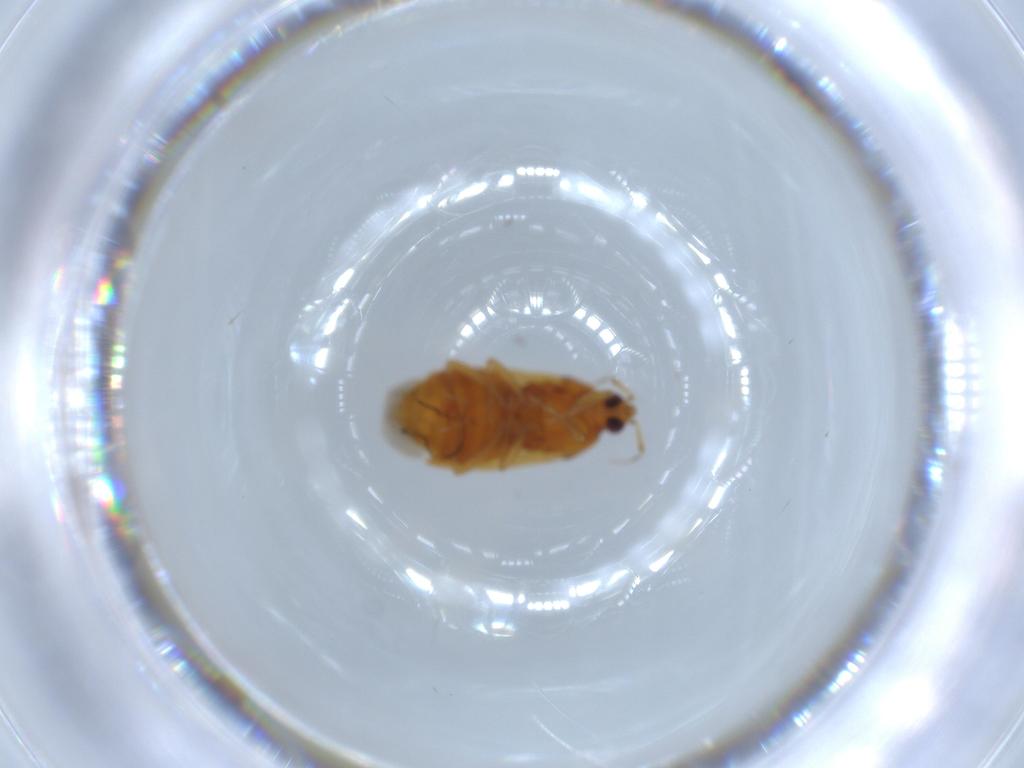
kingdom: Animalia
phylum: Arthropoda
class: Insecta
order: Hemiptera
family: Anthocoridae
